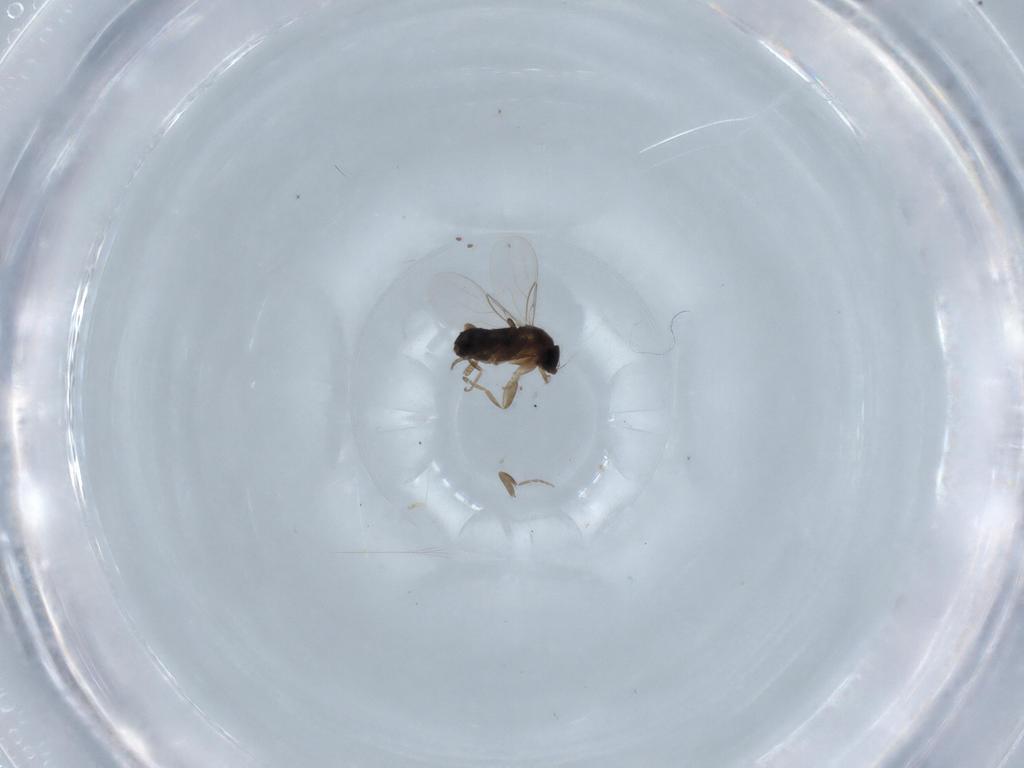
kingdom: Animalia
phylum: Arthropoda
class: Insecta
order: Diptera
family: Phoridae
